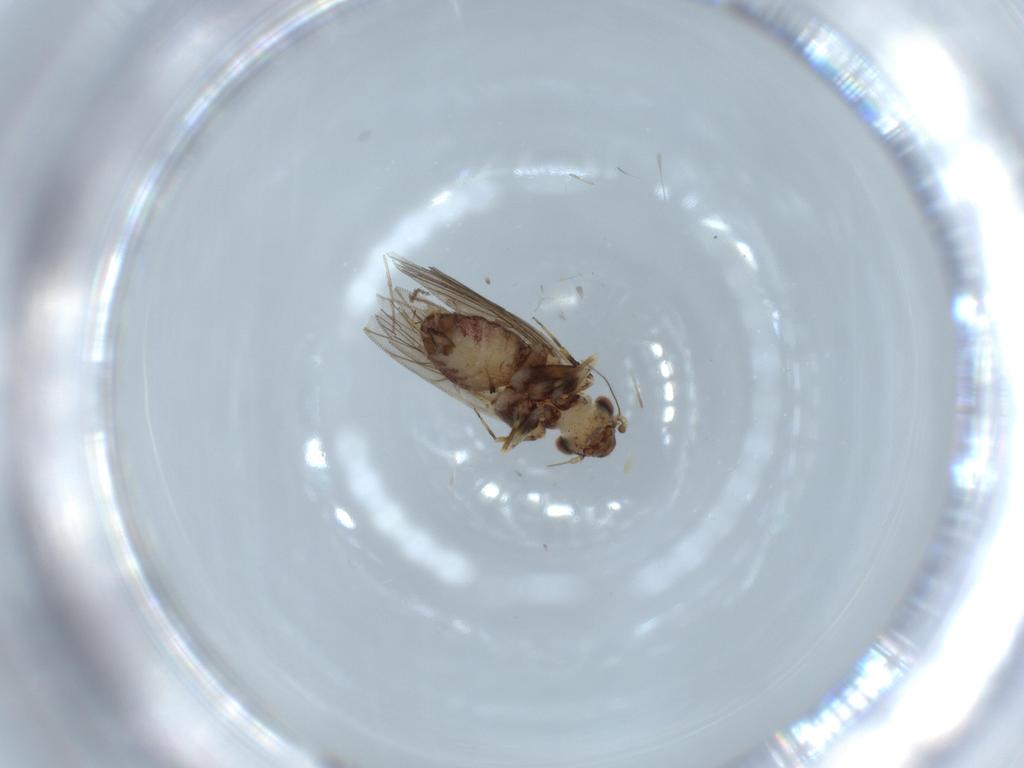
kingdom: Animalia
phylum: Arthropoda
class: Insecta
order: Psocodea
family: Lepidopsocidae
